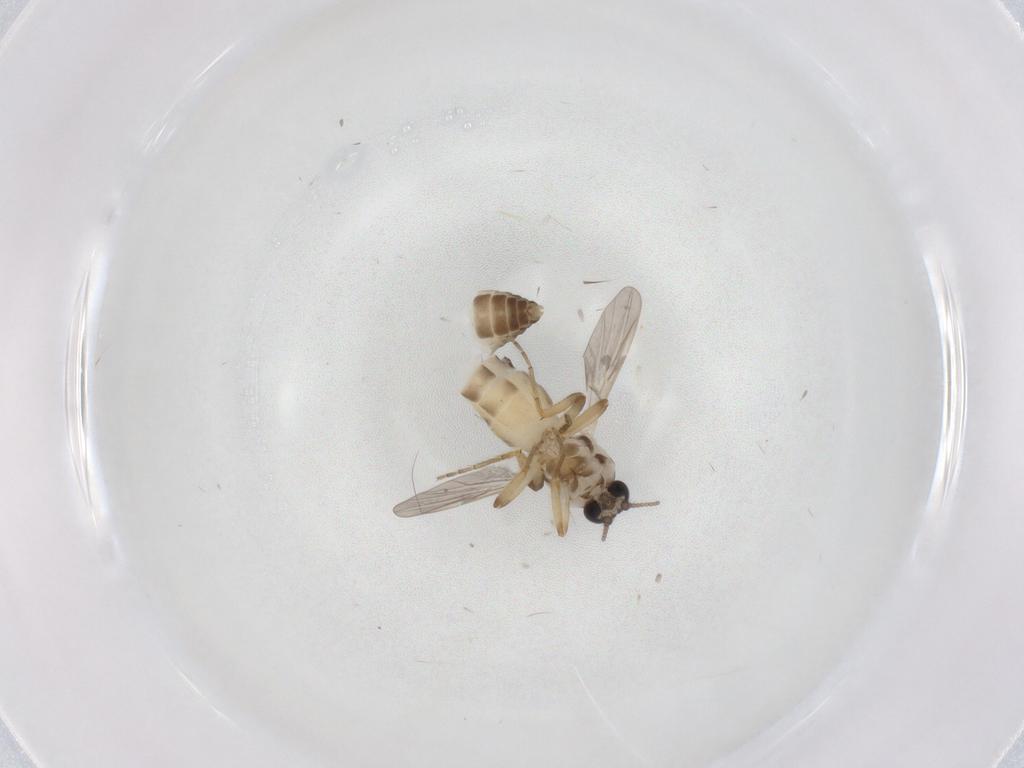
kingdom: Animalia
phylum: Arthropoda
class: Insecta
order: Diptera
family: Ceratopogonidae
